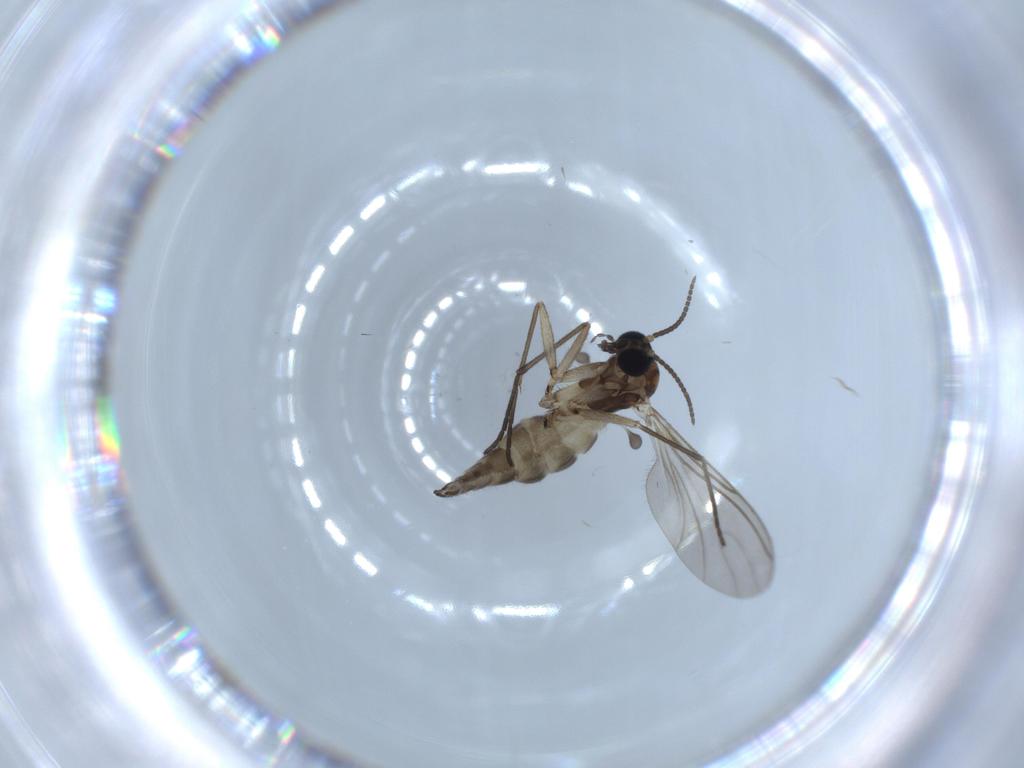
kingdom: Animalia
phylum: Arthropoda
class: Insecta
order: Diptera
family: Sciaridae
